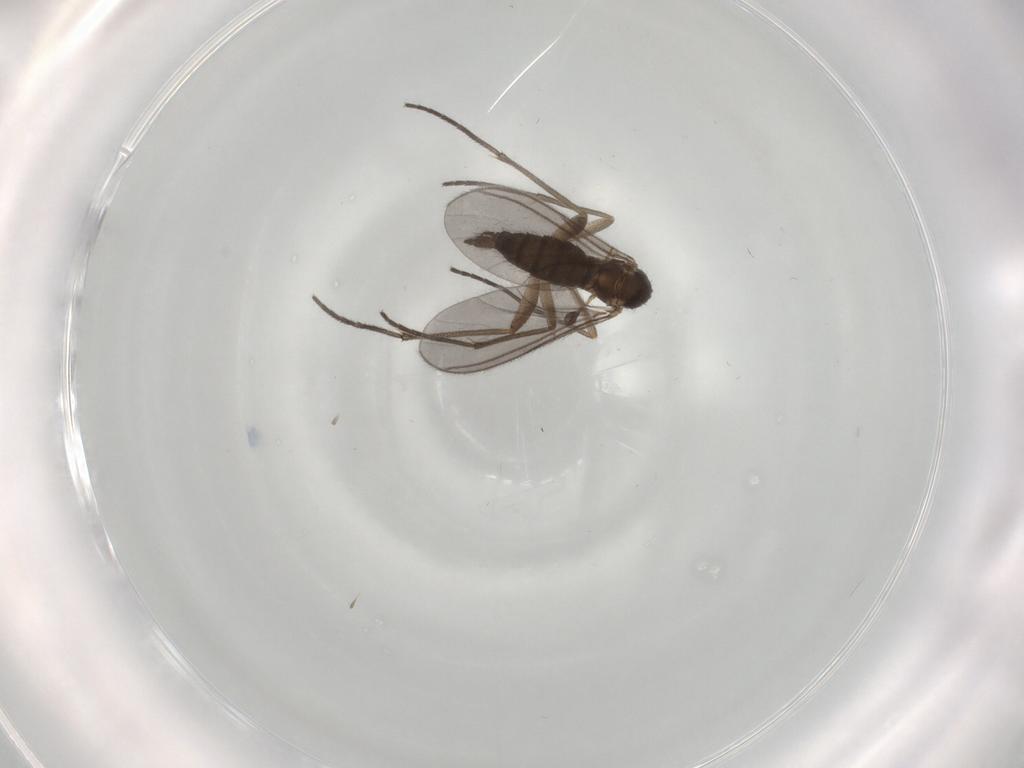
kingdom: Animalia
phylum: Arthropoda
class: Insecta
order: Diptera
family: Sciaridae
